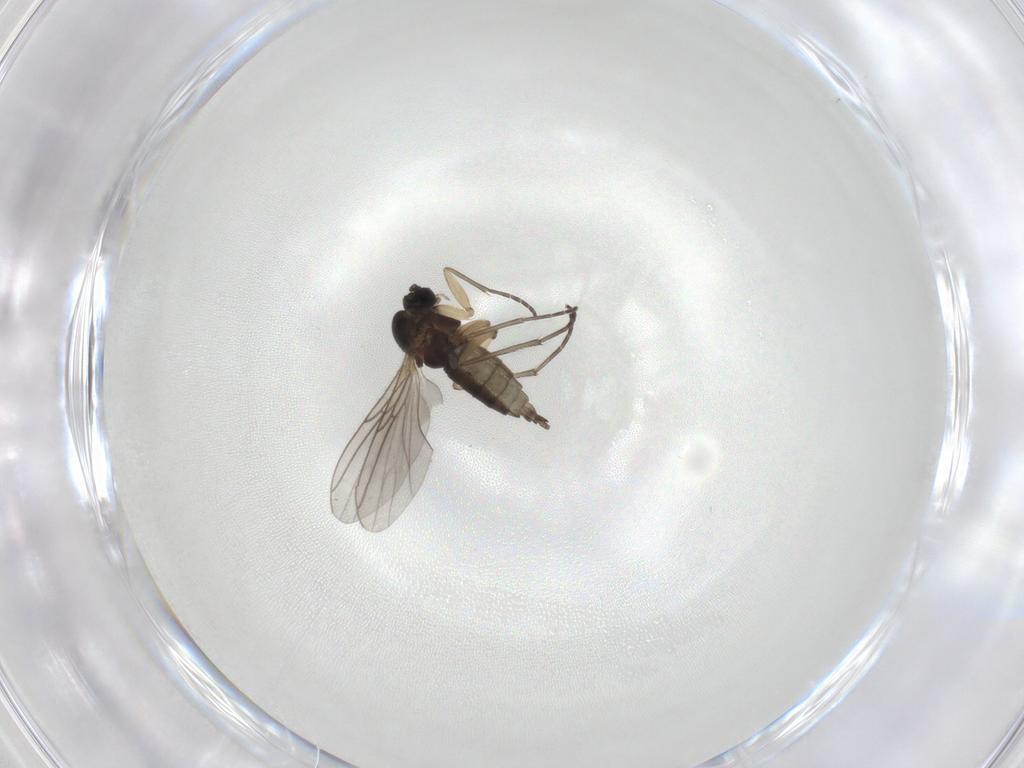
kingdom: Animalia
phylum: Arthropoda
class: Insecta
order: Diptera
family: Sciaridae
